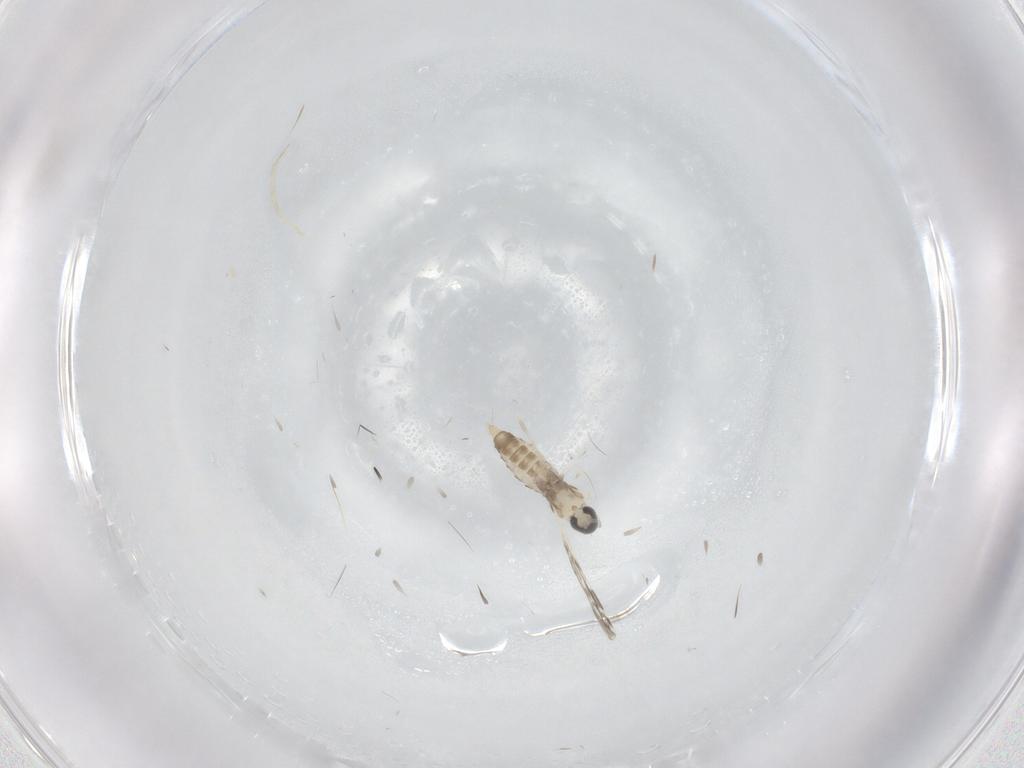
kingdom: Animalia
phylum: Arthropoda
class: Insecta
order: Diptera
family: Cecidomyiidae
